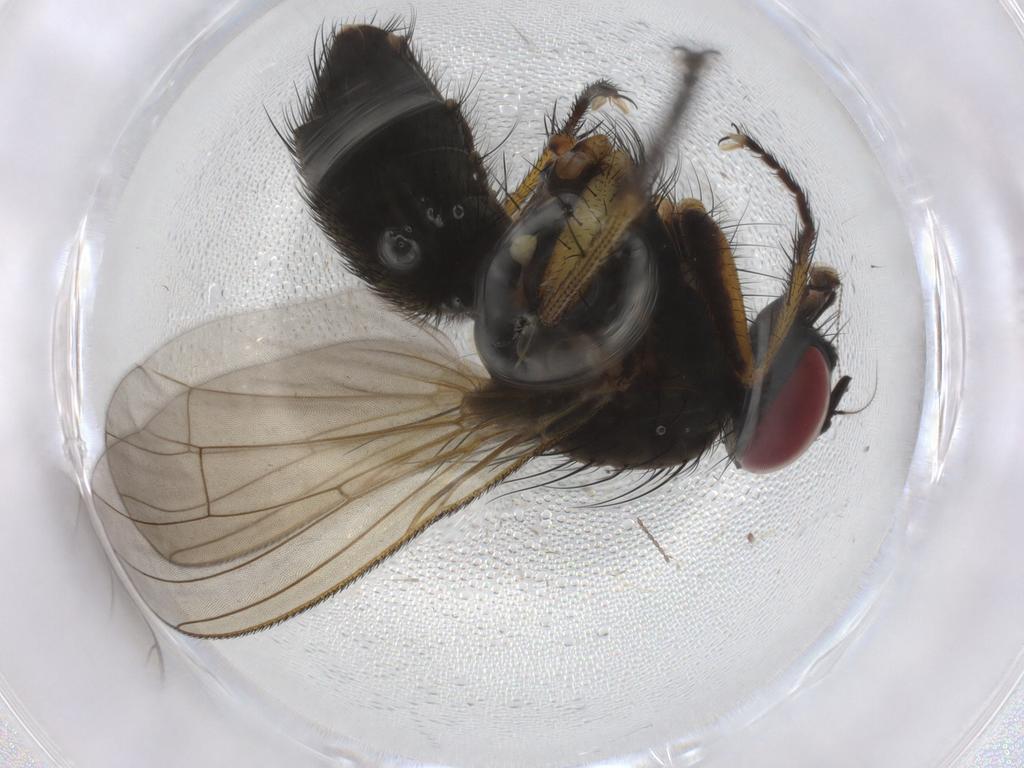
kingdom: Animalia
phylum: Arthropoda
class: Insecta
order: Diptera
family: Muscidae
